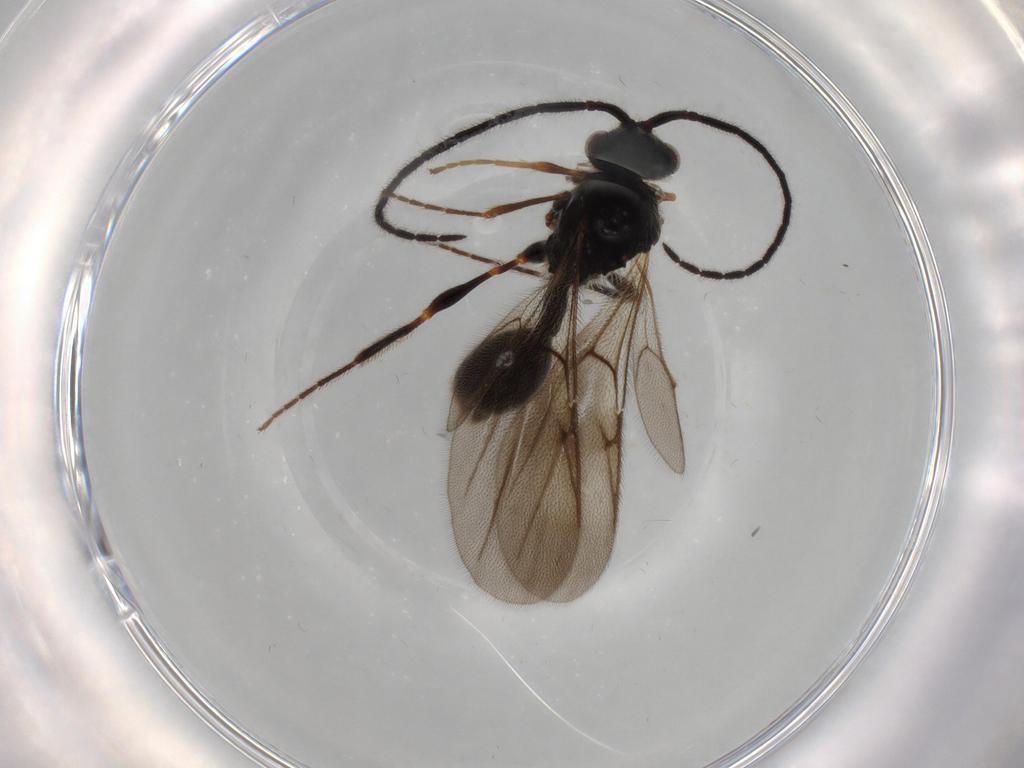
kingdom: Animalia
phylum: Arthropoda
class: Insecta
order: Hymenoptera
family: Diapriidae
